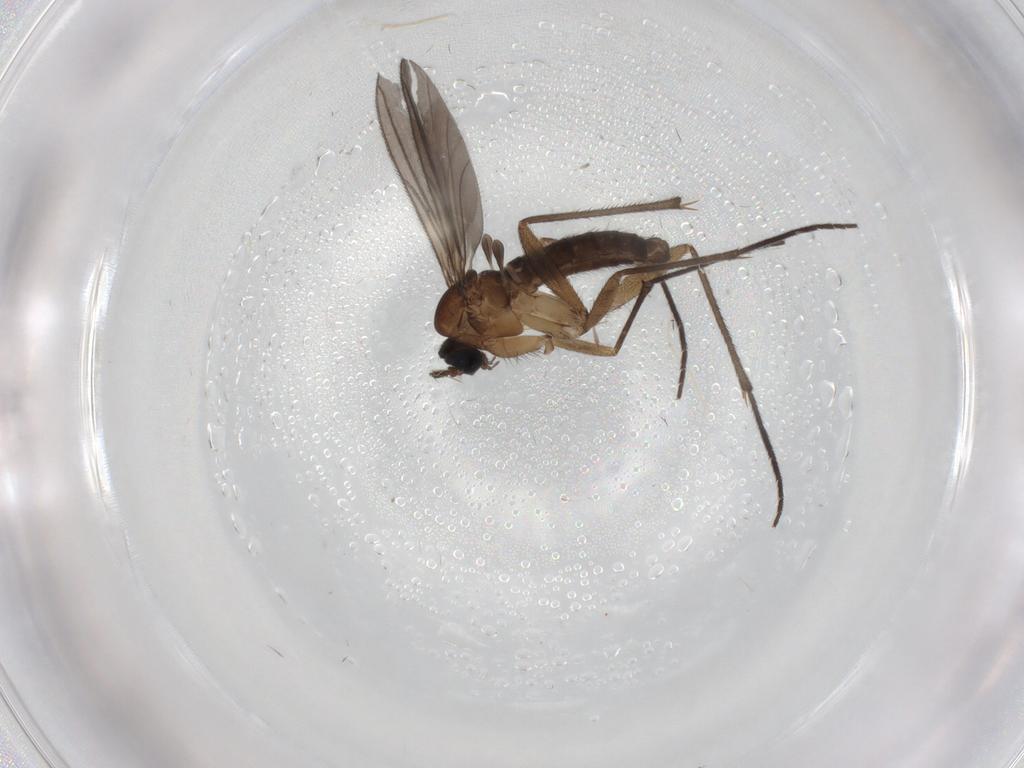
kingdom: Animalia
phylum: Arthropoda
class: Insecta
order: Diptera
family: Sciaridae
